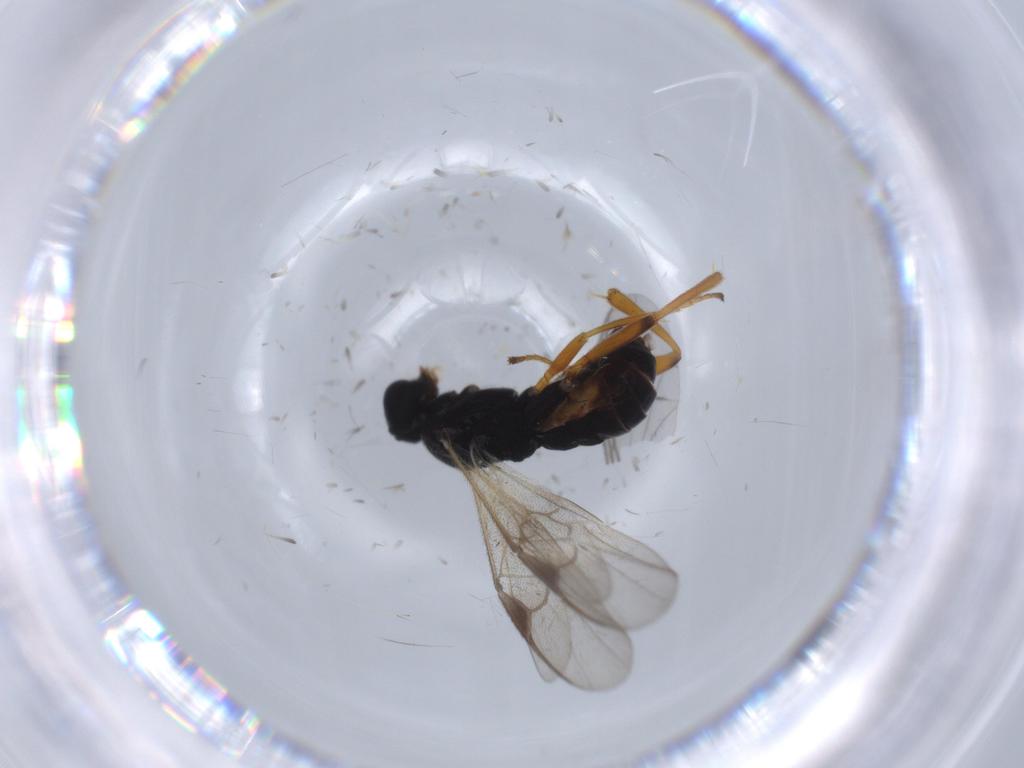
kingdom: Animalia
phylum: Arthropoda
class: Insecta
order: Hymenoptera
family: Braconidae
